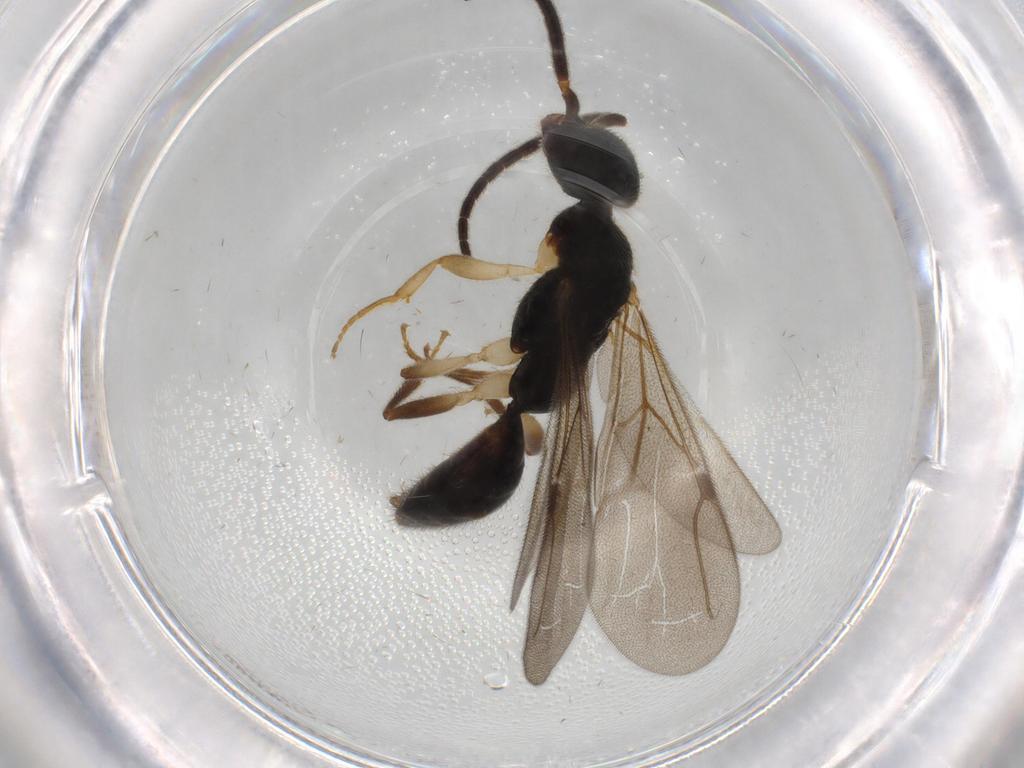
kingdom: Animalia
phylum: Arthropoda
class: Insecta
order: Hymenoptera
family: Bethylidae
